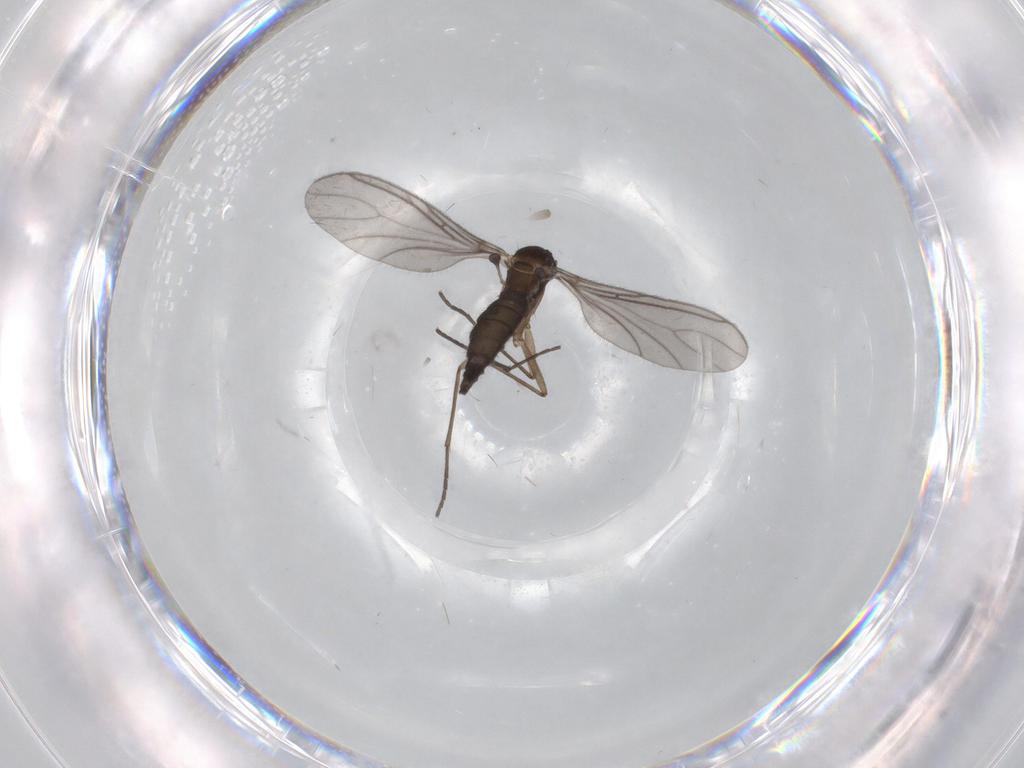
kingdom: Animalia
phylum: Arthropoda
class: Insecta
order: Diptera
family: Sciaridae
